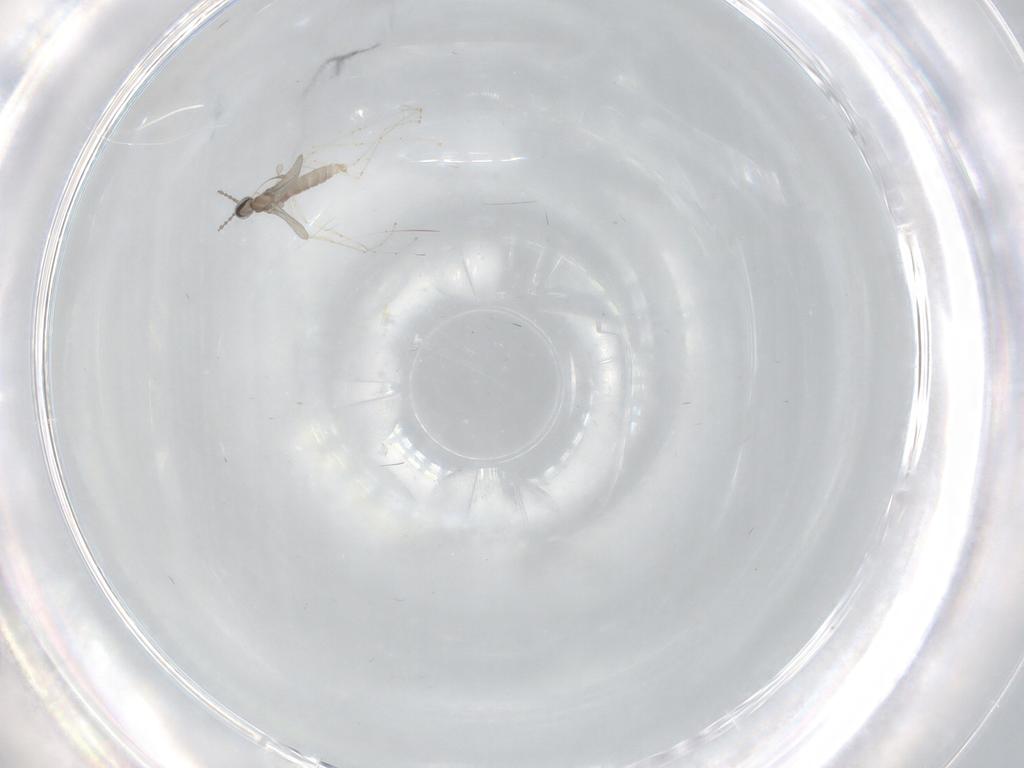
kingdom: Animalia
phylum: Arthropoda
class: Insecta
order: Diptera
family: Cecidomyiidae
